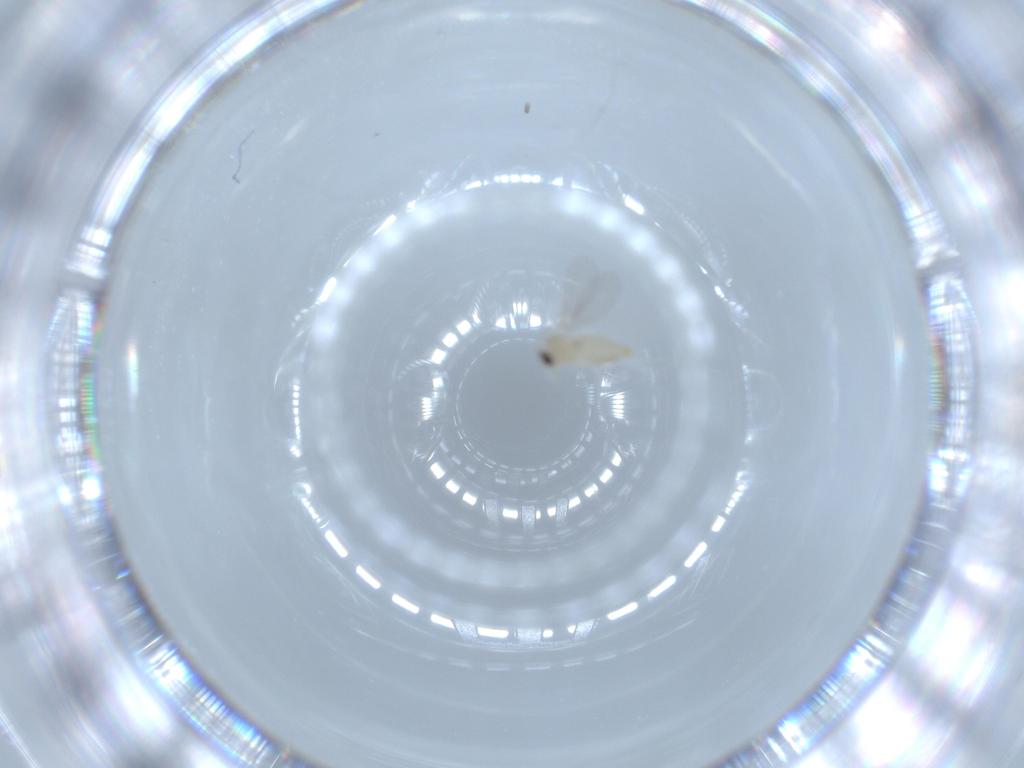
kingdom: Animalia
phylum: Arthropoda
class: Insecta
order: Diptera
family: Cecidomyiidae
